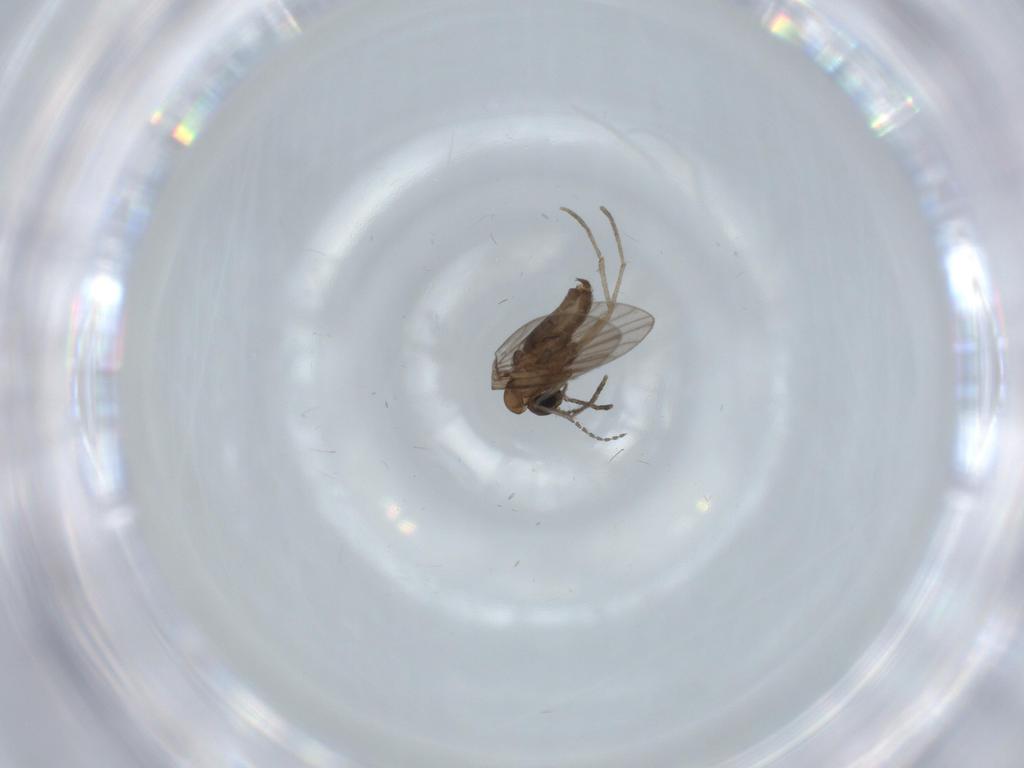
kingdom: Animalia
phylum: Arthropoda
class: Insecta
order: Diptera
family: Psychodidae
